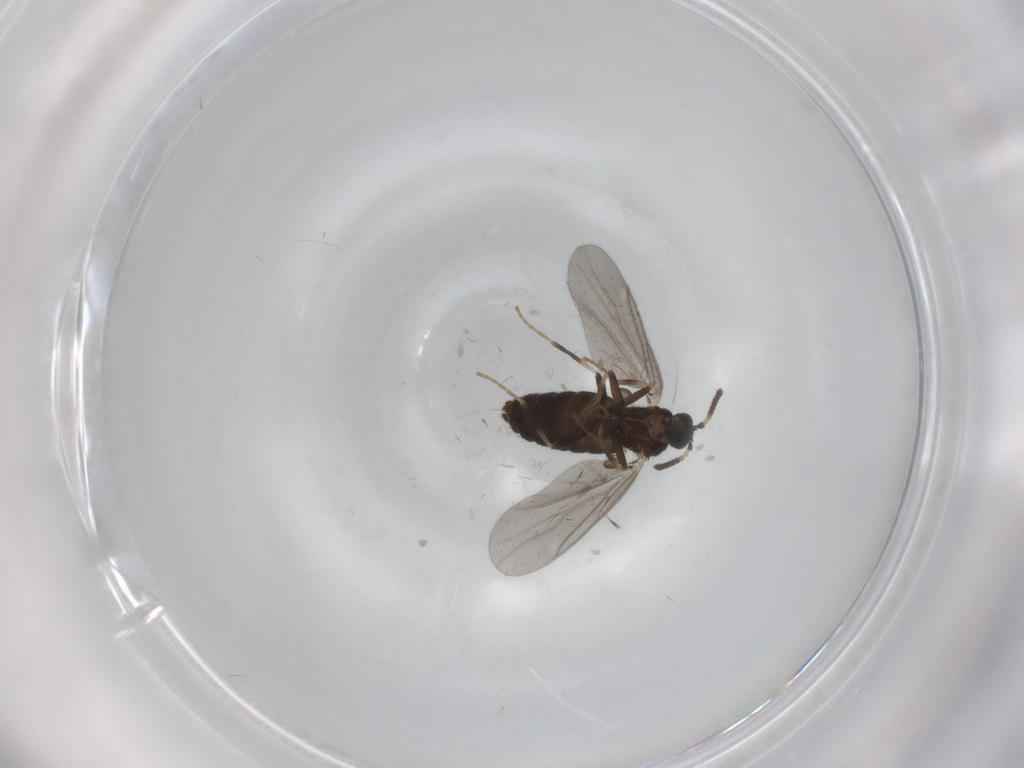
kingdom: Animalia
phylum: Arthropoda
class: Insecta
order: Diptera
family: Scatopsidae
